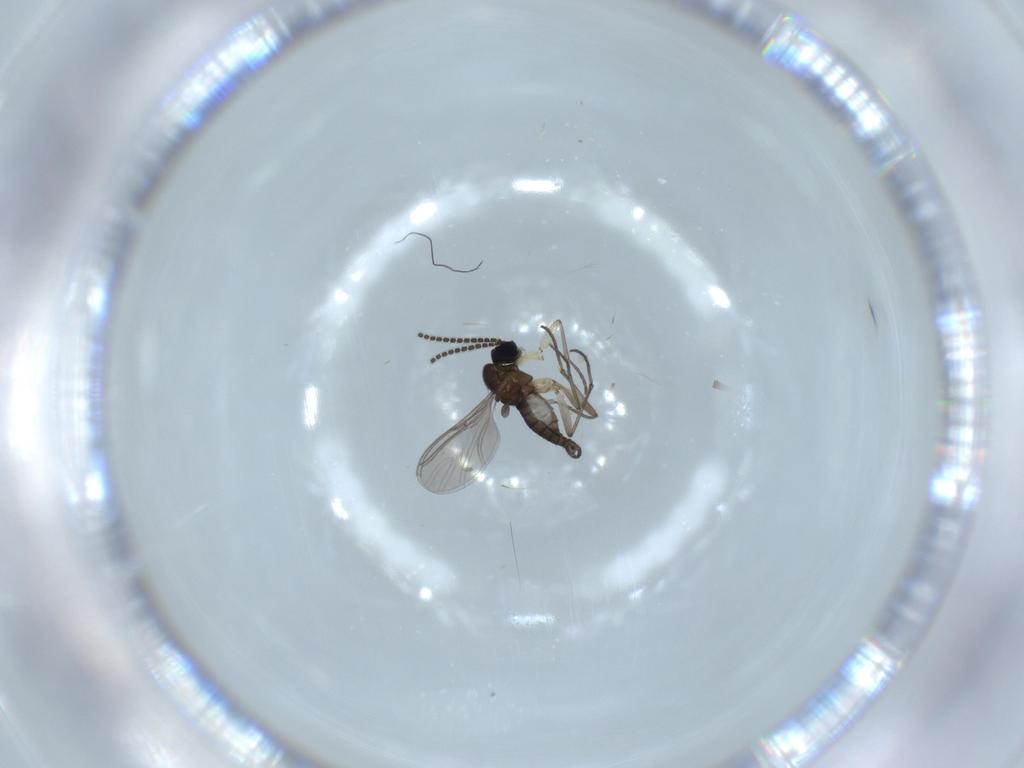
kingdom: Animalia
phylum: Arthropoda
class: Insecta
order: Diptera
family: Sciaridae
